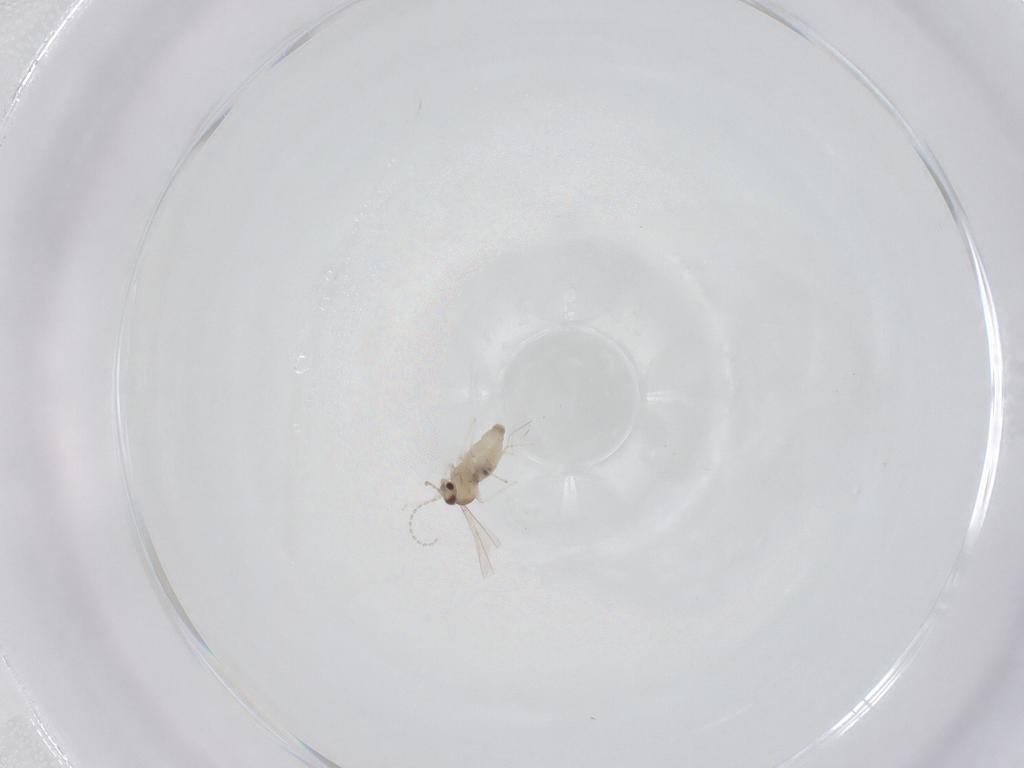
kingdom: Animalia
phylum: Arthropoda
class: Insecta
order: Diptera
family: Cecidomyiidae
